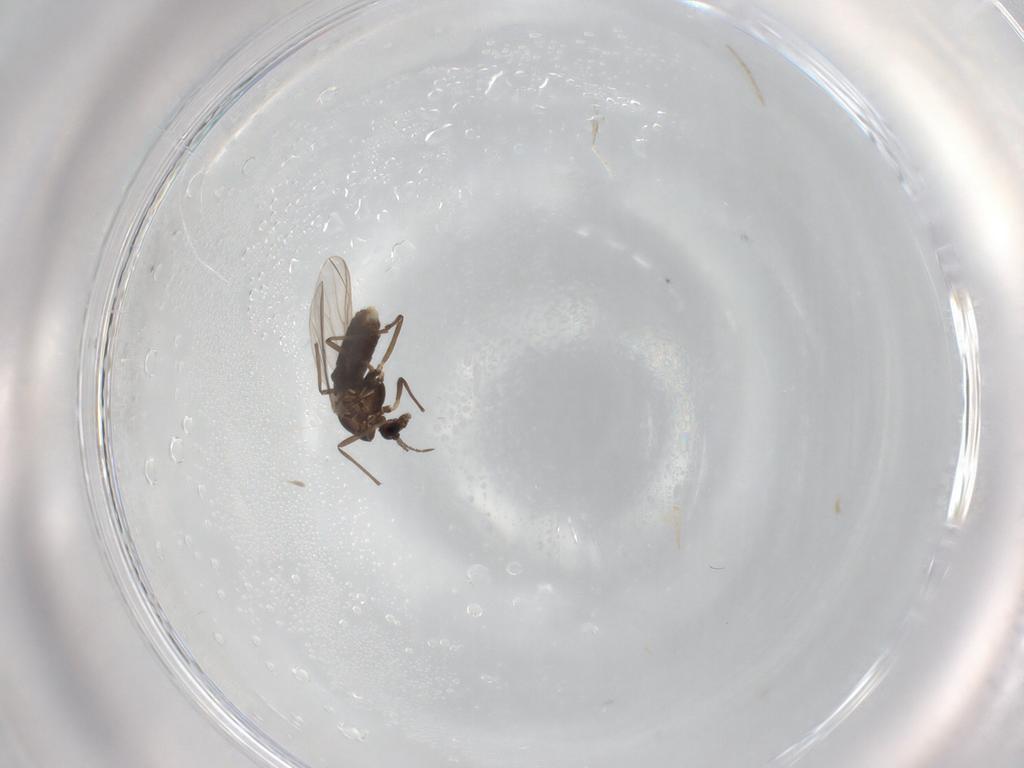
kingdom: Animalia
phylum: Arthropoda
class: Insecta
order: Diptera
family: Chironomidae
